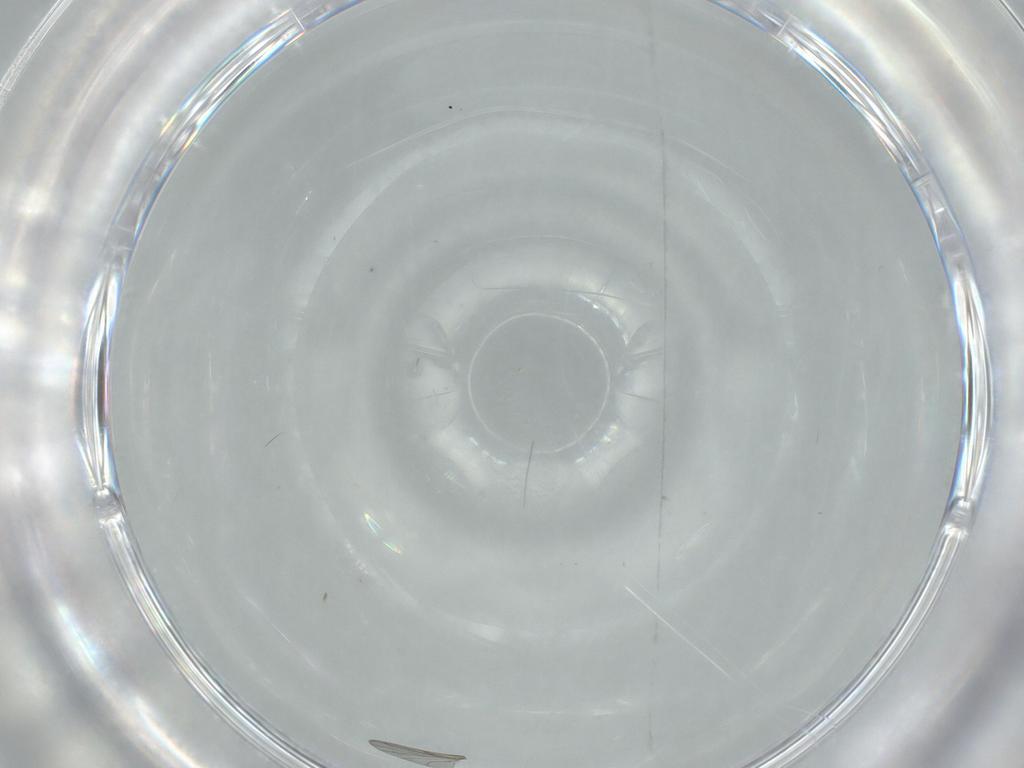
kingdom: Animalia
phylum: Arthropoda
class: Insecta
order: Diptera
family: Milichiidae
